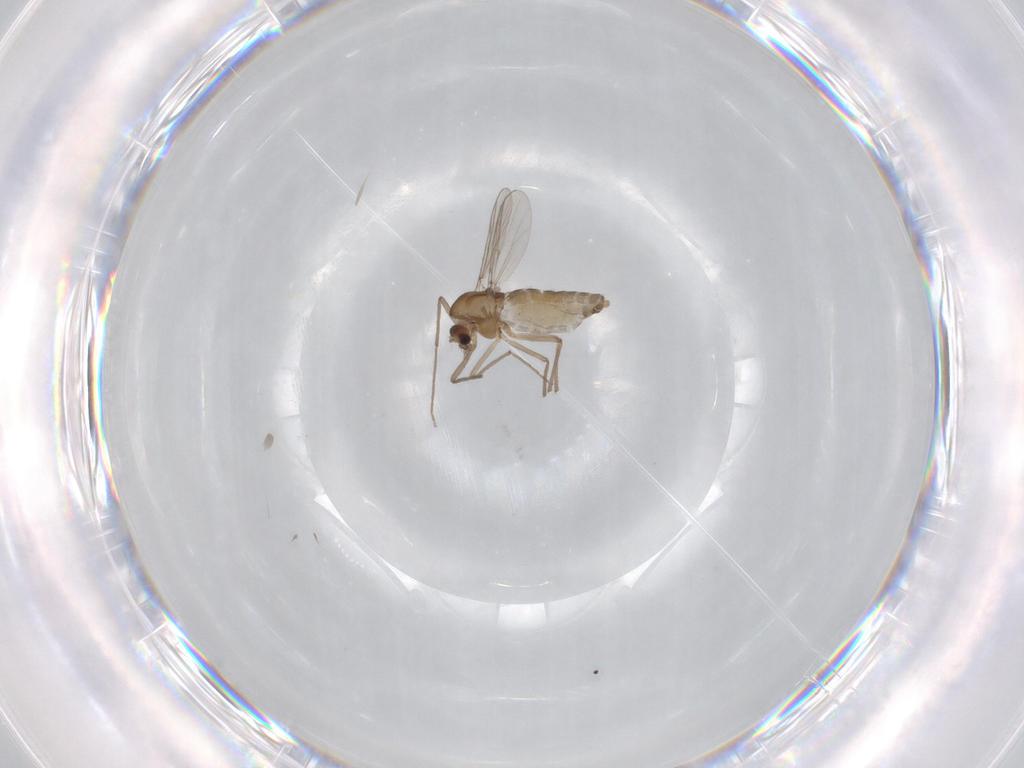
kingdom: Animalia
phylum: Arthropoda
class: Insecta
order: Diptera
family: Chironomidae
